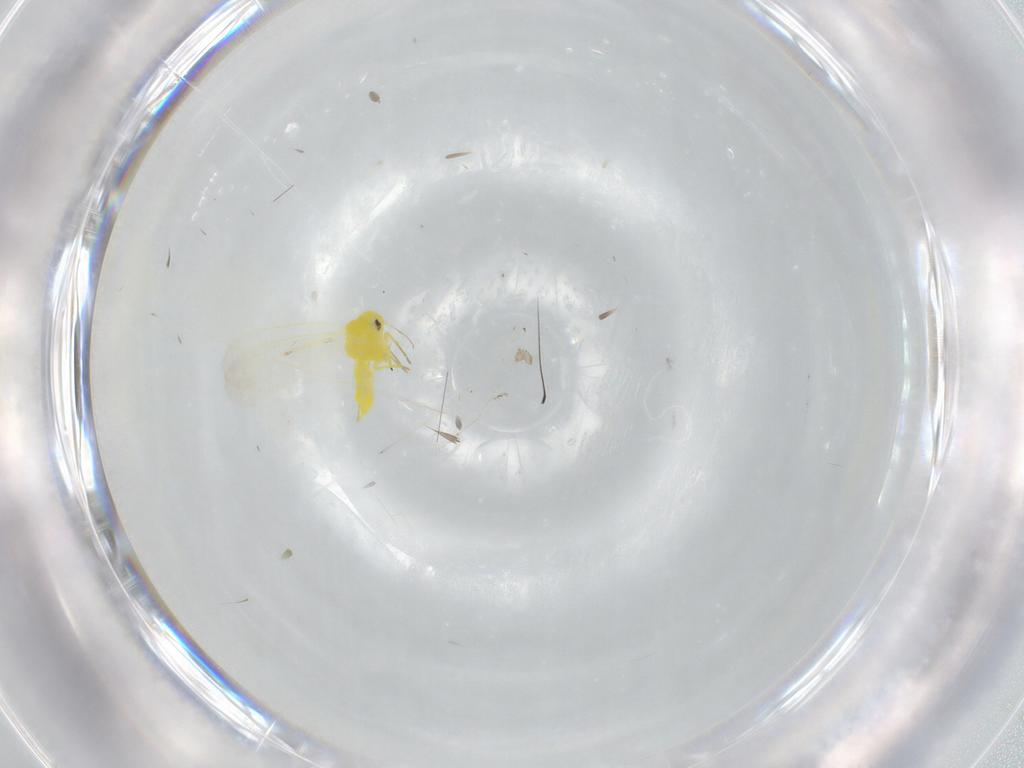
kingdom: Animalia
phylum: Arthropoda
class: Insecta
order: Hemiptera
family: Aleyrodidae
